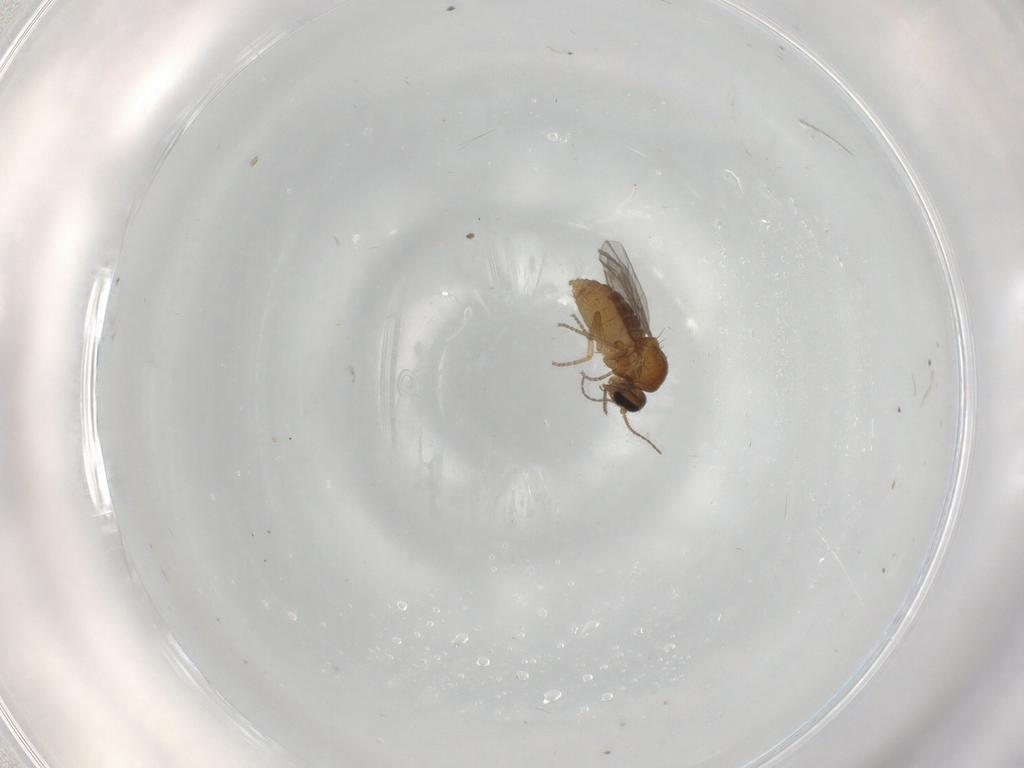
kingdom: Animalia
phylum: Arthropoda
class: Insecta
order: Diptera
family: Ceratopogonidae
